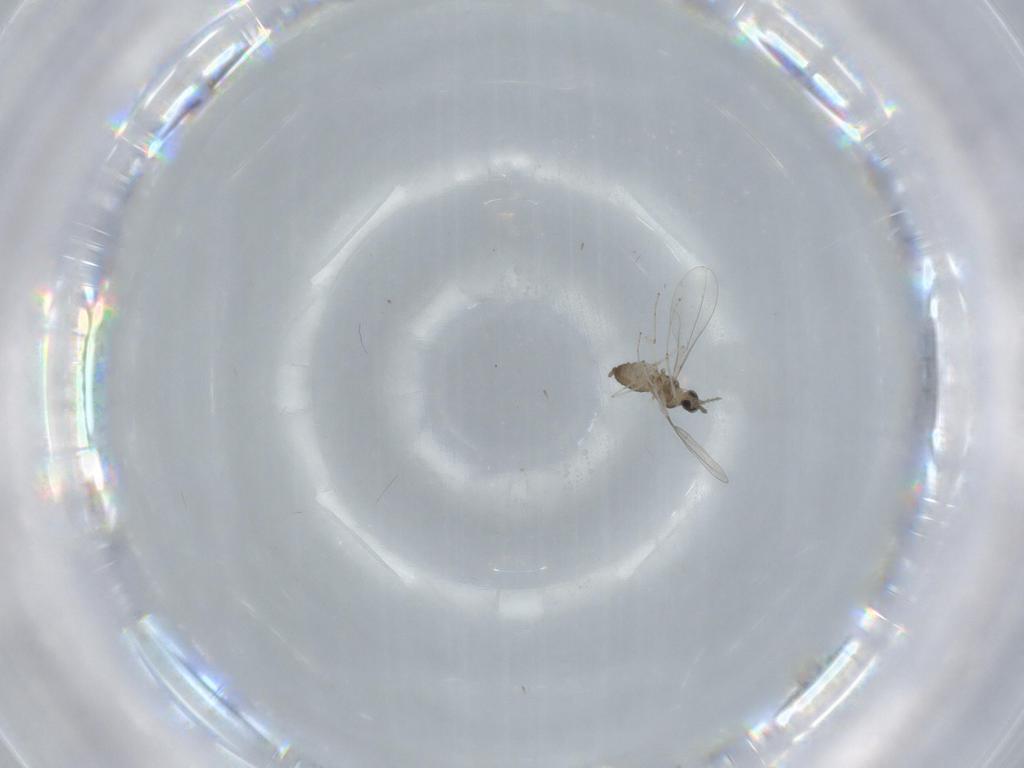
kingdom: Animalia
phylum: Arthropoda
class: Insecta
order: Diptera
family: Cecidomyiidae
